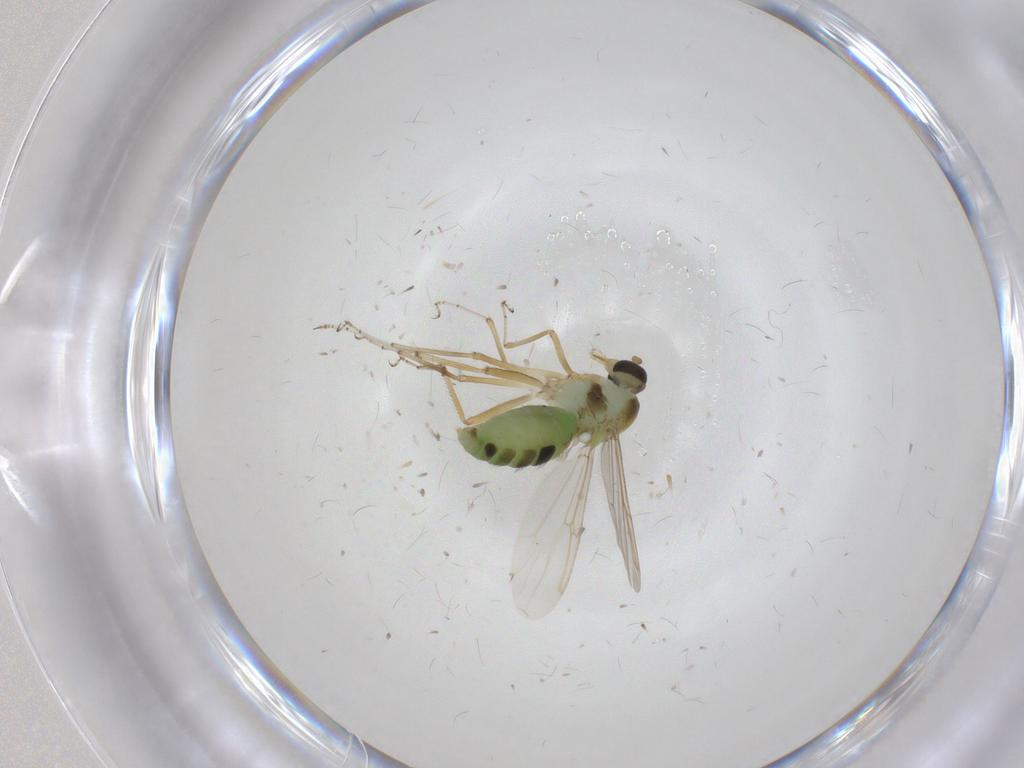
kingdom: Animalia
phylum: Arthropoda
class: Insecta
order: Diptera
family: Ceratopogonidae
